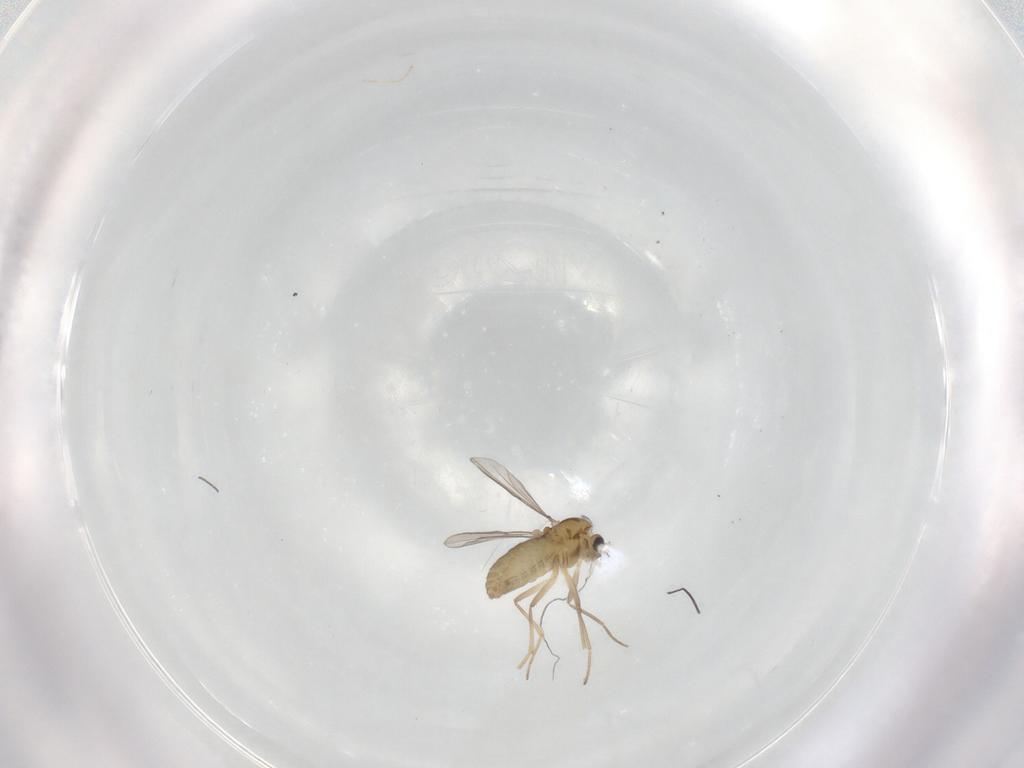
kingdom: Animalia
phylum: Arthropoda
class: Insecta
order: Diptera
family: Chironomidae
